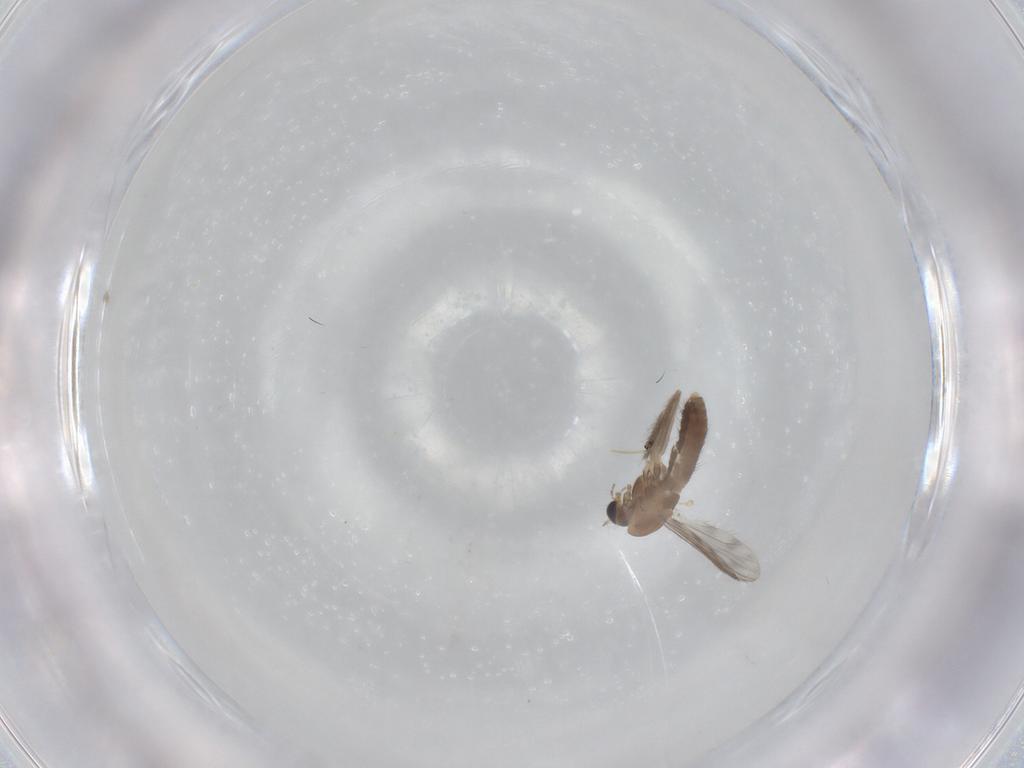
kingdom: Animalia
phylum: Arthropoda
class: Insecta
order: Diptera
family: Chironomidae
